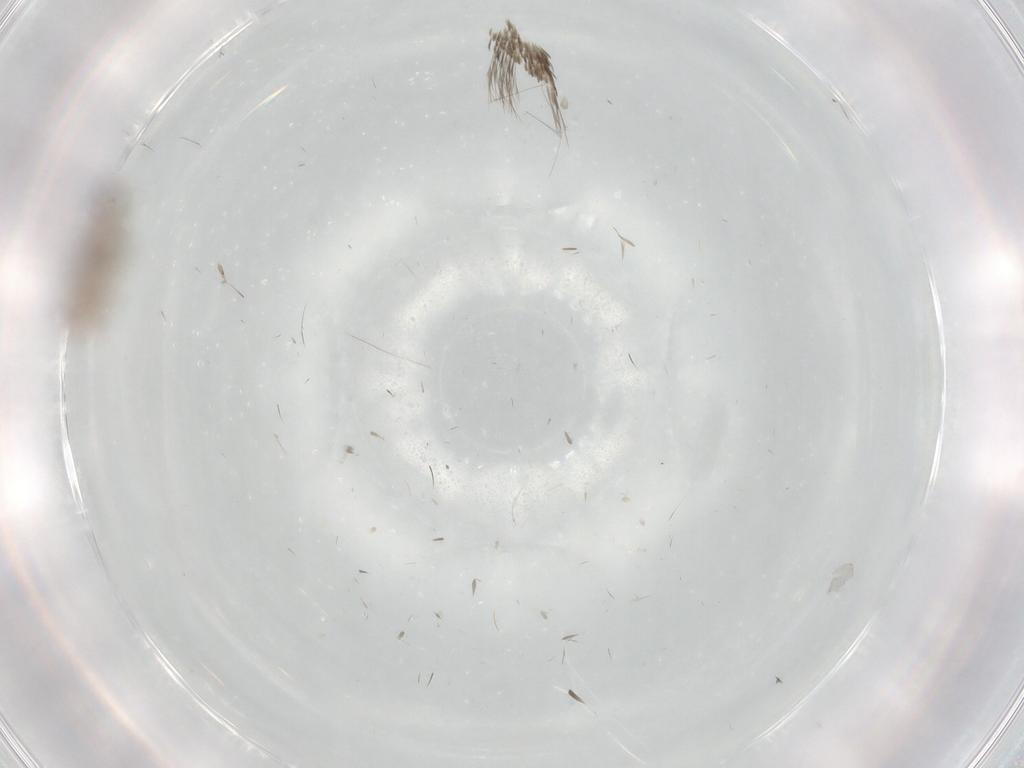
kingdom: Animalia
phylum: Arthropoda
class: Insecta
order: Diptera
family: Chironomidae
